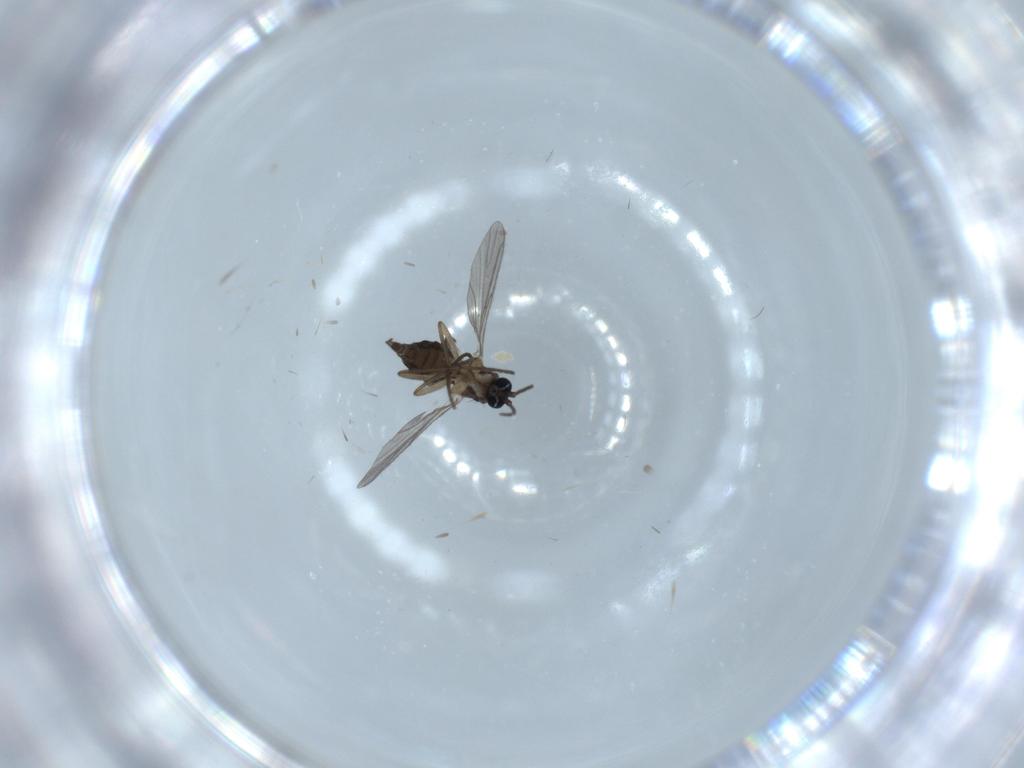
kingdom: Animalia
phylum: Arthropoda
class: Insecta
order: Diptera
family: Sciaridae
